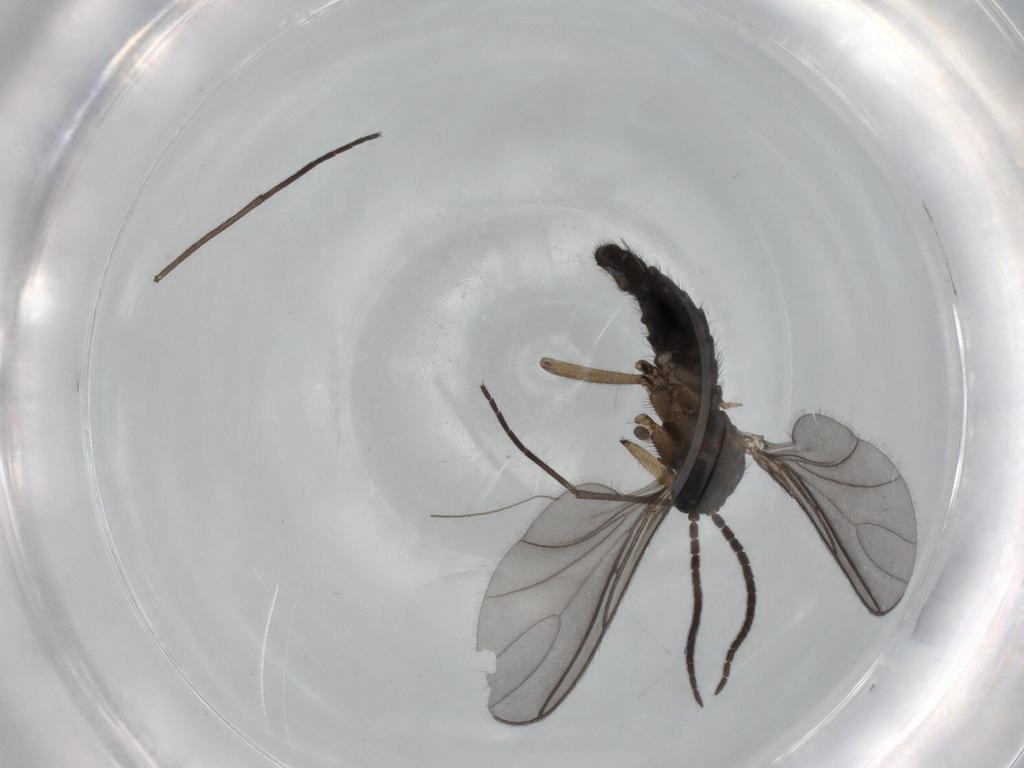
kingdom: Animalia
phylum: Arthropoda
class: Insecta
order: Diptera
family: Sciaridae
